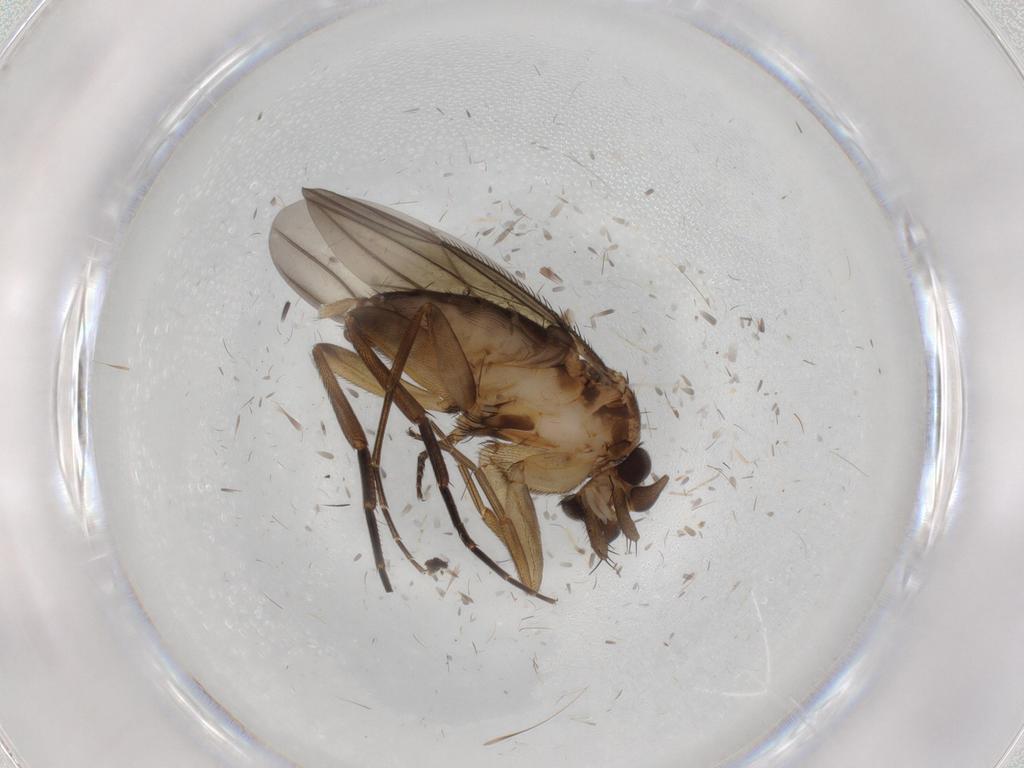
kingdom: Animalia
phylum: Arthropoda
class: Insecta
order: Diptera
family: Phoridae
